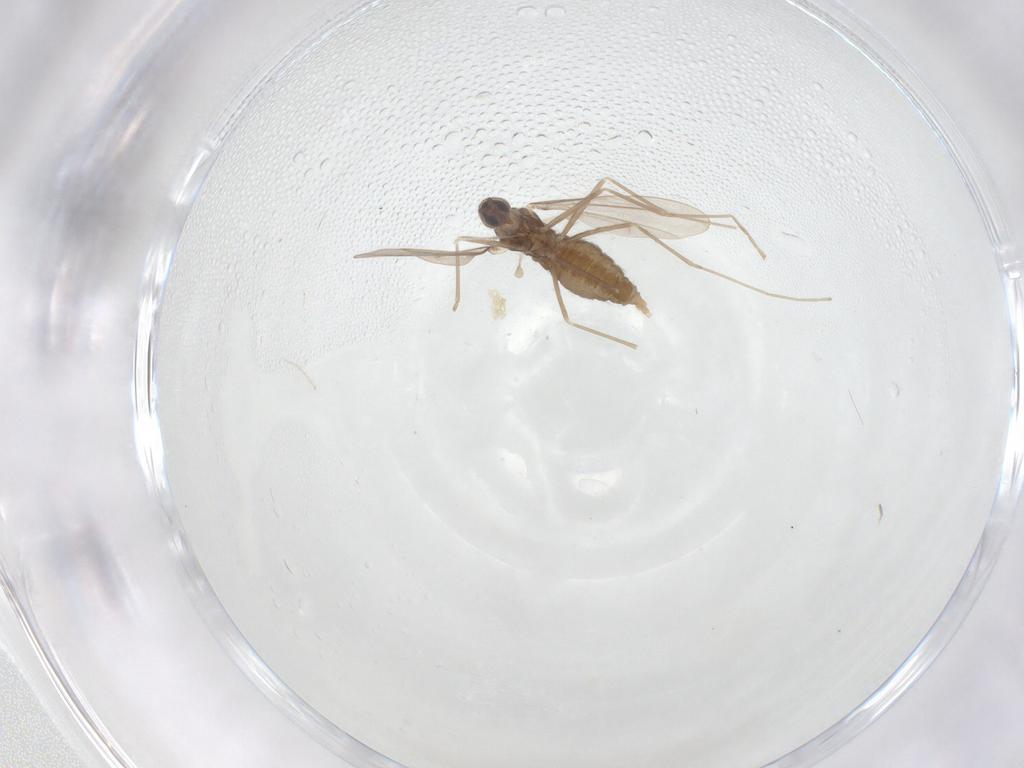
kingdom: Animalia
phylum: Arthropoda
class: Insecta
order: Diptera
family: Cecidomyiidae
